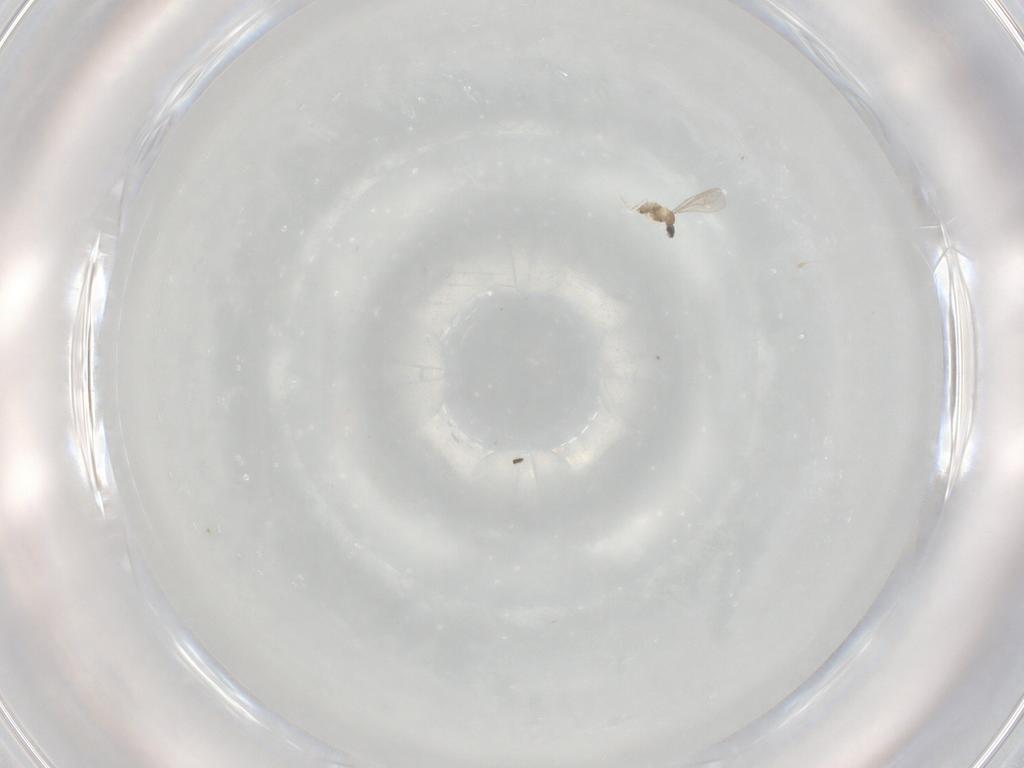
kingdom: Animalia
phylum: Arthropoda
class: Insecta
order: Diptera
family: Cecidomyiidae
